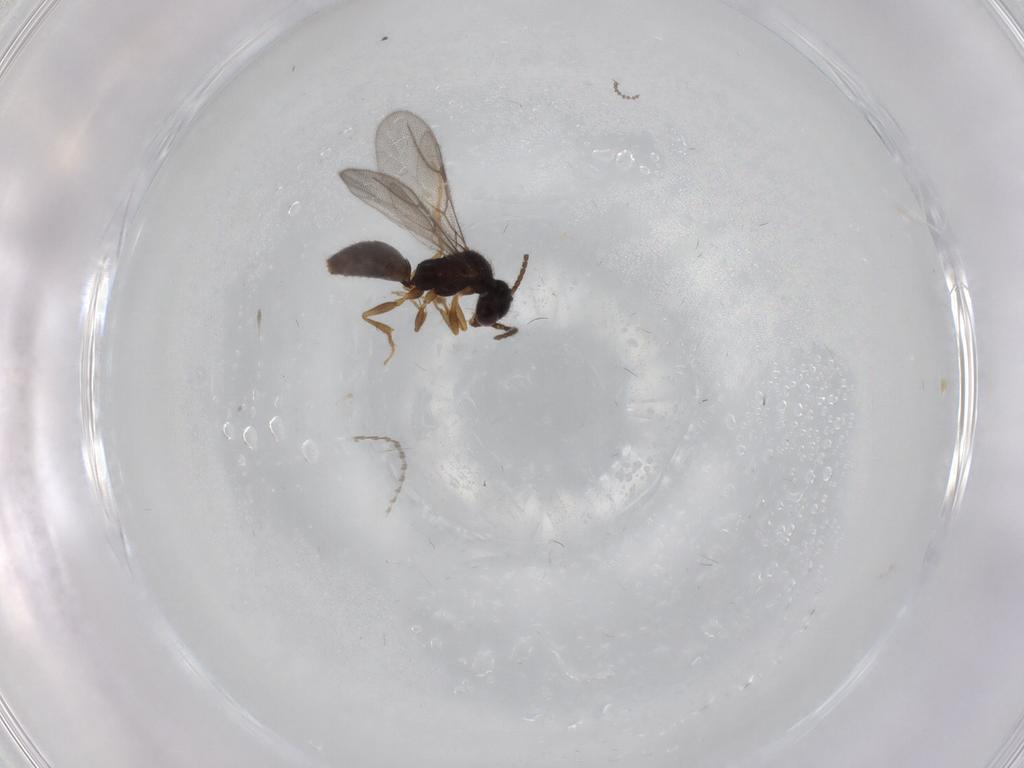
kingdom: Animalia
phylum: Arthropoda
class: Insecta
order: Hymenoptera
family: Scelionidae
